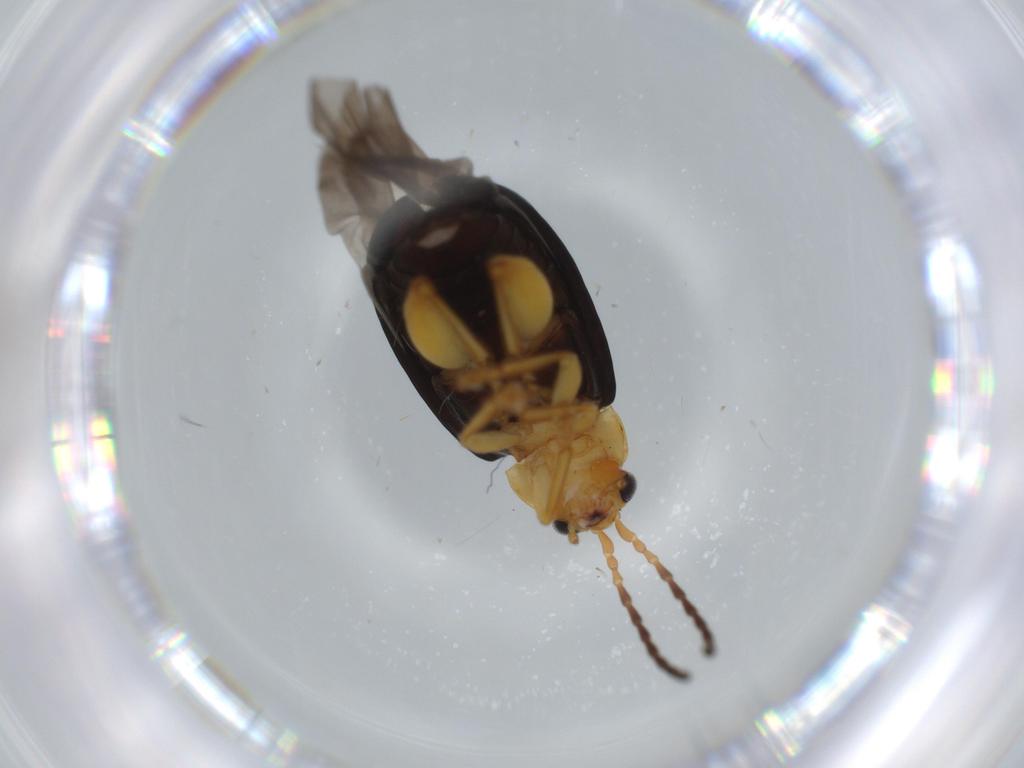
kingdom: Animalia
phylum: Arthropoda
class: Insecta
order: Coleoptera
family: Chrysomelidae
